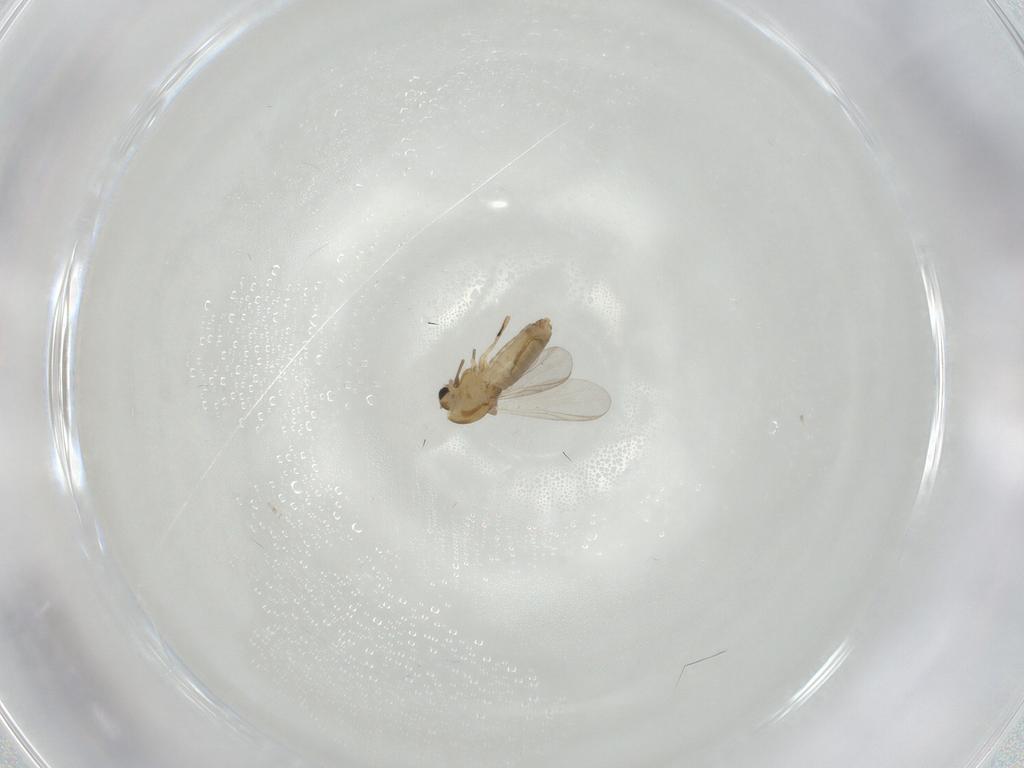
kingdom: Animalia
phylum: Arthropoda
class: Insecta
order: Diptera
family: Chironomidae
